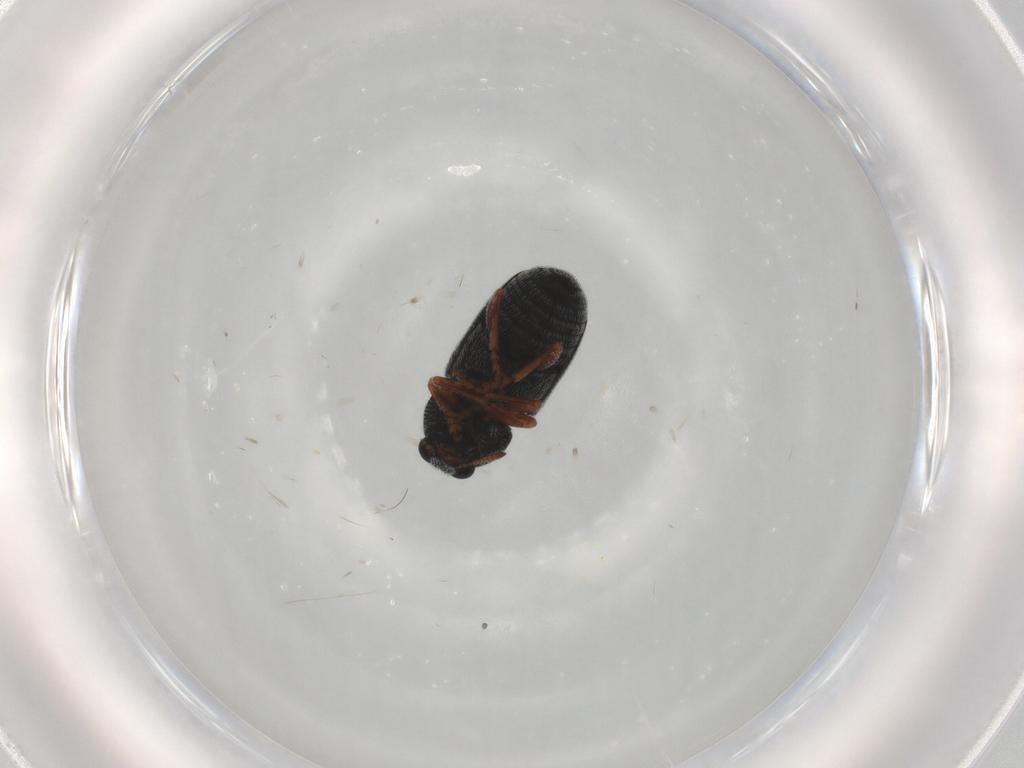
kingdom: Animalia
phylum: Arthropoda
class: Insecta
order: Coleoptera
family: Anthribidae
